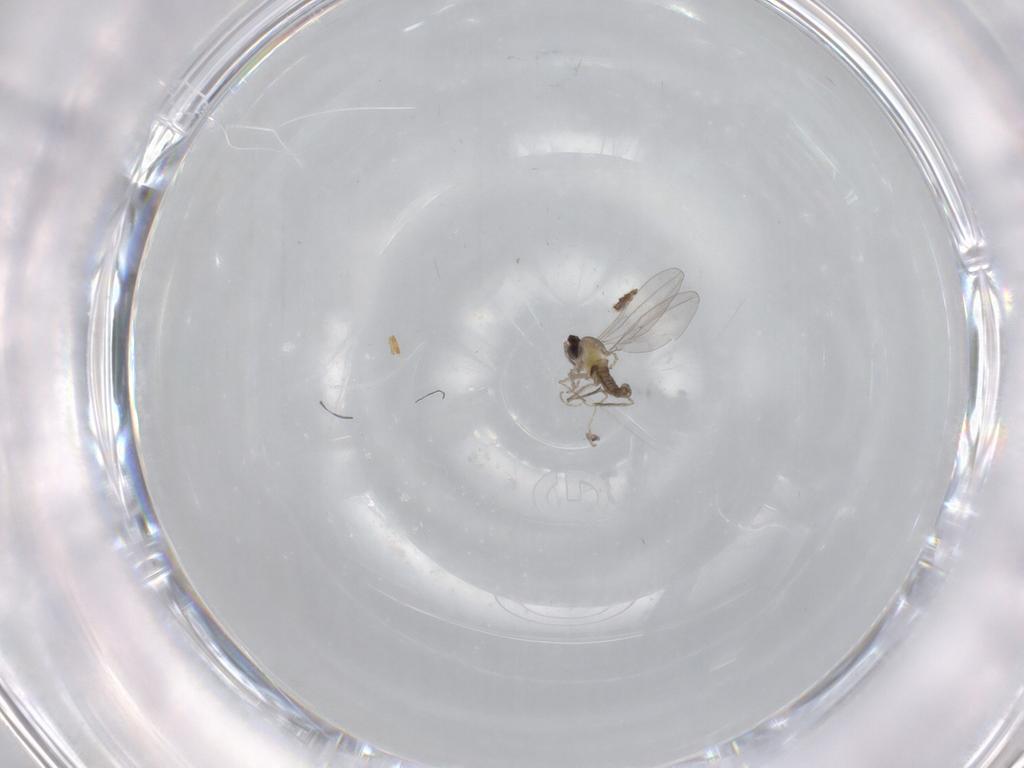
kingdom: Animalia
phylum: Arthropoda
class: Insecta
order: Diptera
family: Cecidomyiidae
